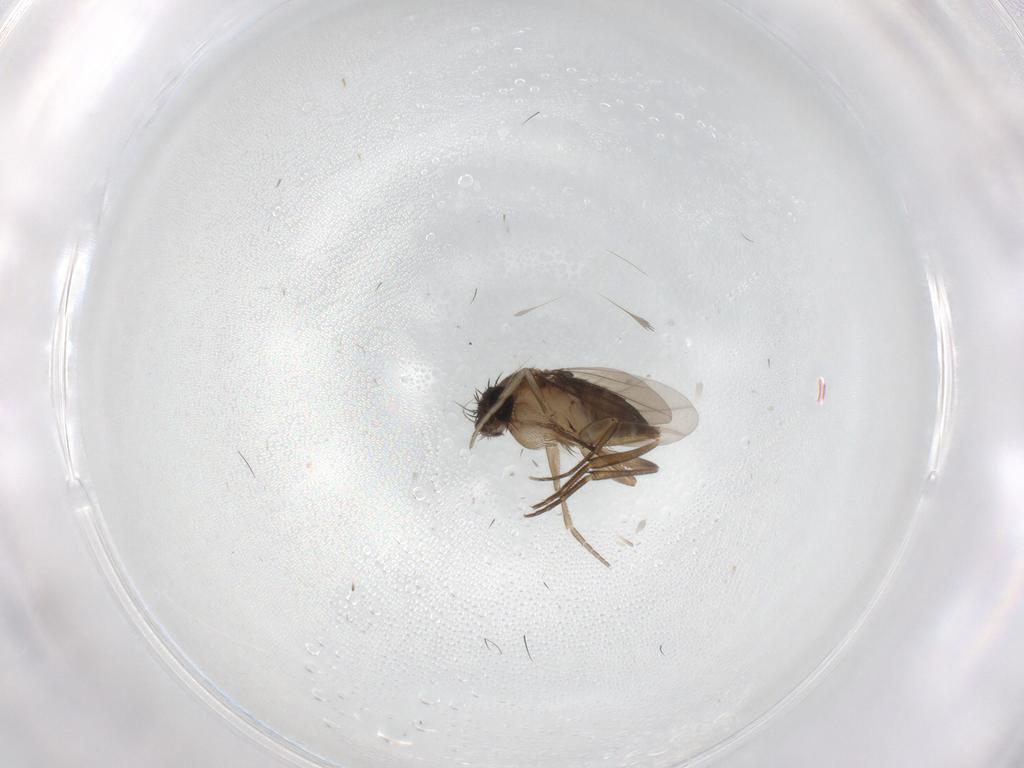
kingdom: Animalia
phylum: Arthropoda
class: Insecta
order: Diptera
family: Phoridae
